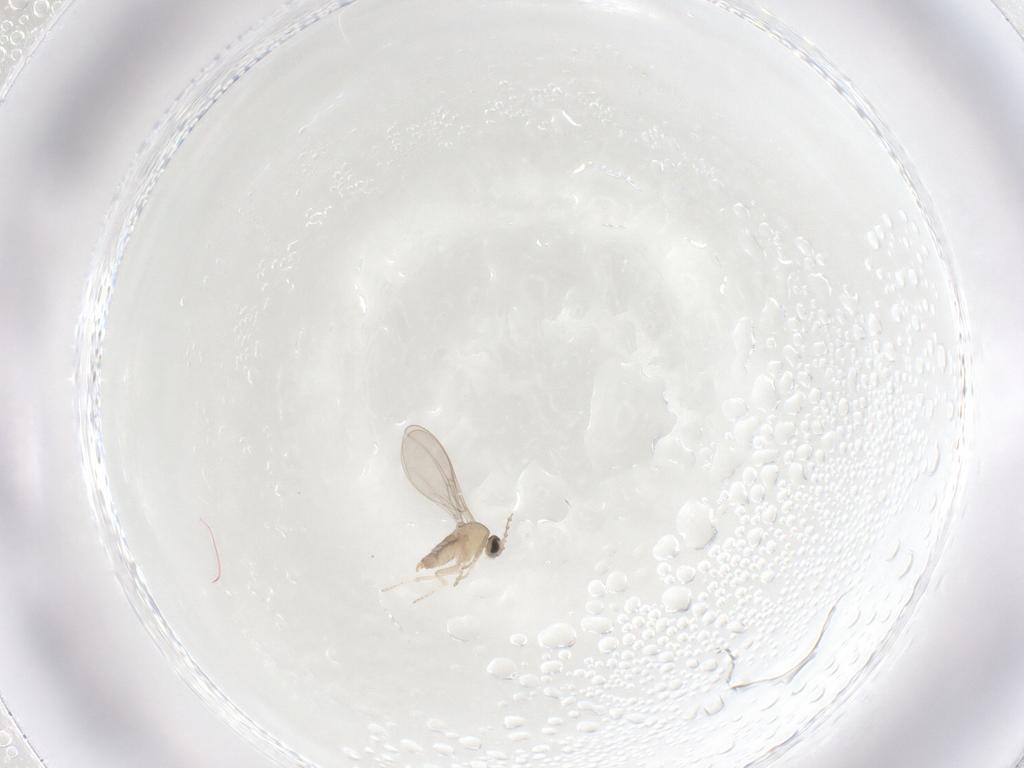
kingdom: Animalia
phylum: Arthropoda
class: Insecta
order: Diptera
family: Cecidomyiidae
